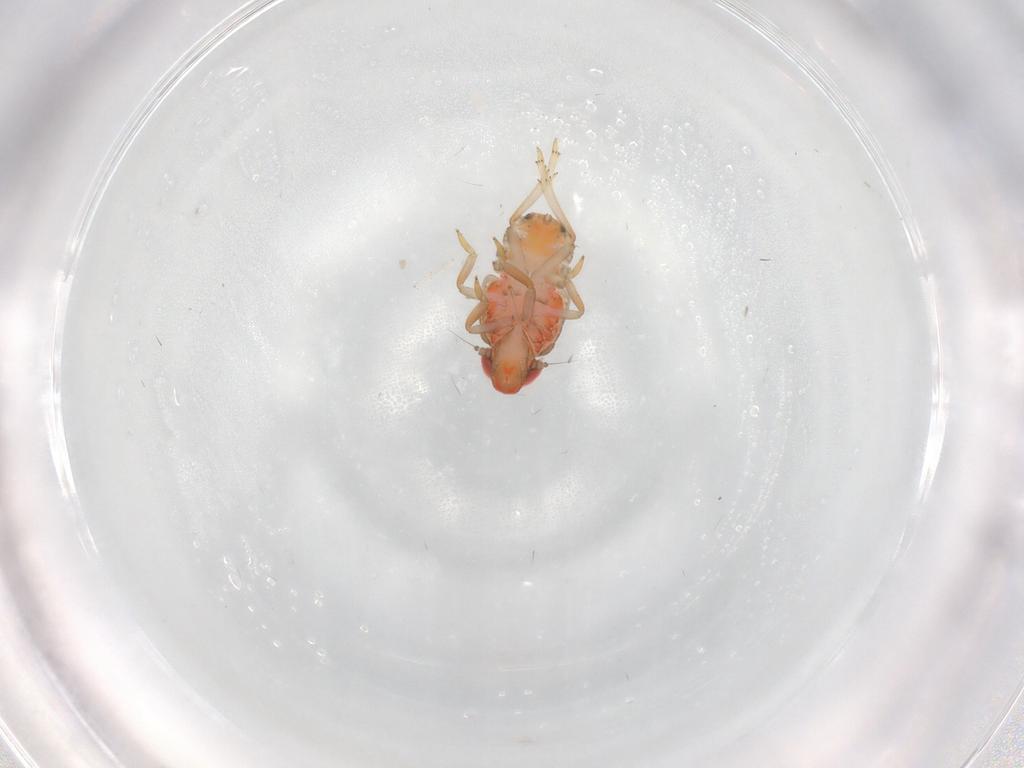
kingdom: Animalia
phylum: Arthropoda
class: Insecta
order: Hemiptera
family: Issidae
